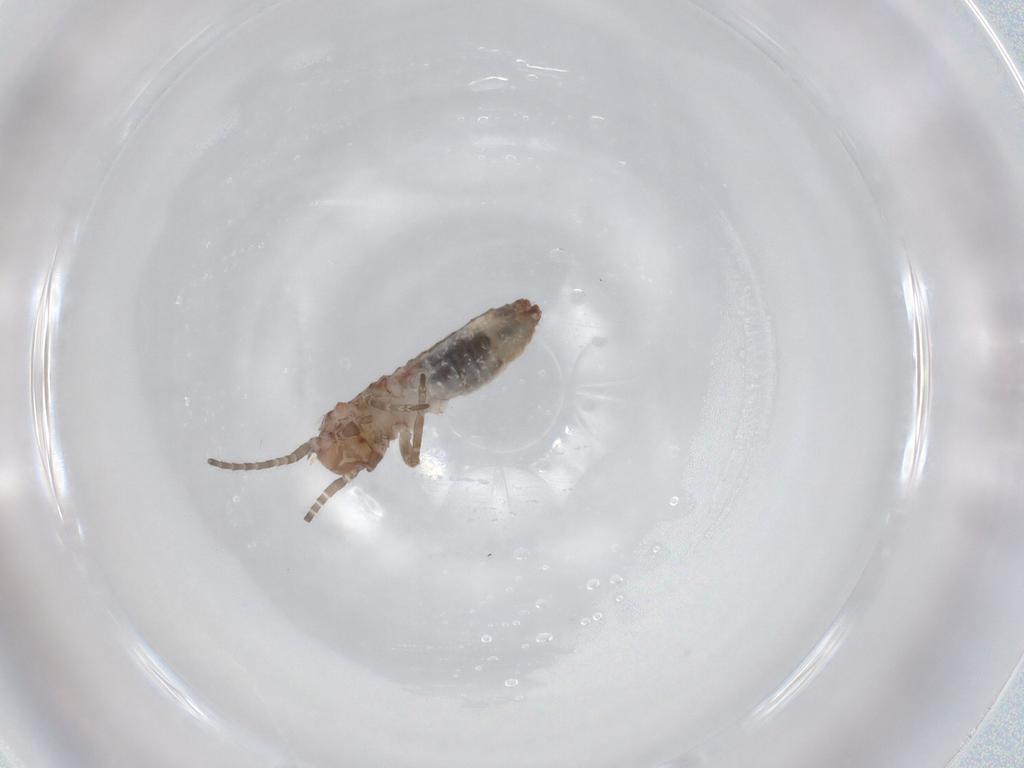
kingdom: Animalia
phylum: Arthropoda
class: Insecta
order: Orthoptera
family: Mogoplistidae
